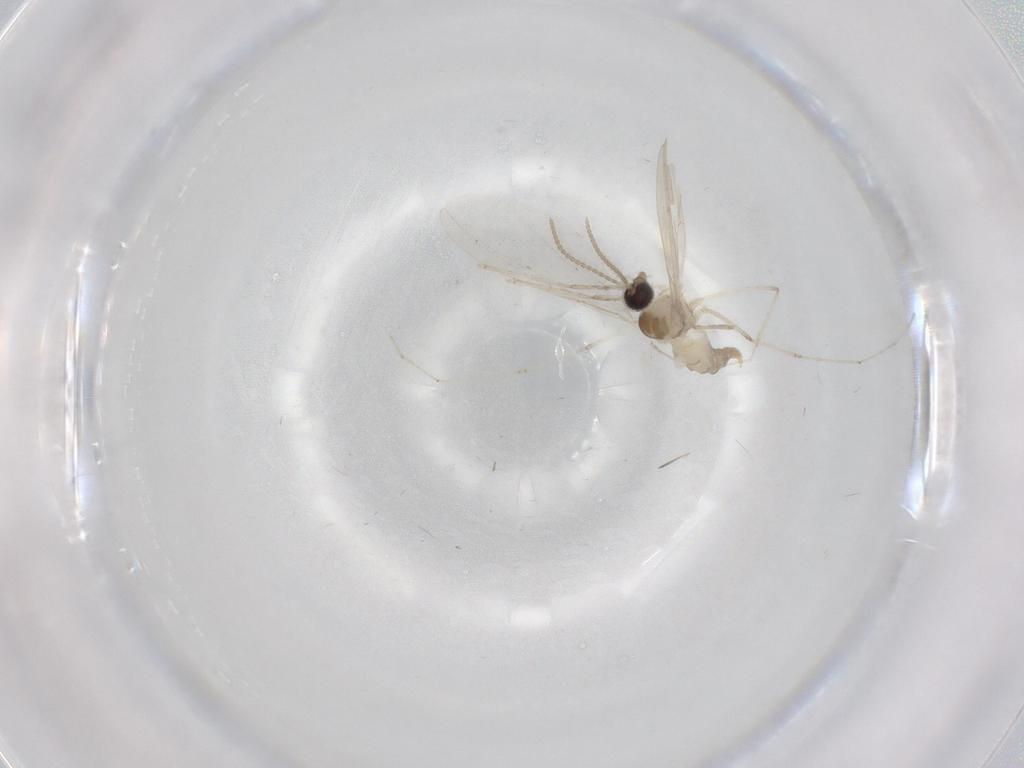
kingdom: Animalia
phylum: Arthropoda
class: Insecta
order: Diptera
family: Cecidomyiidae
